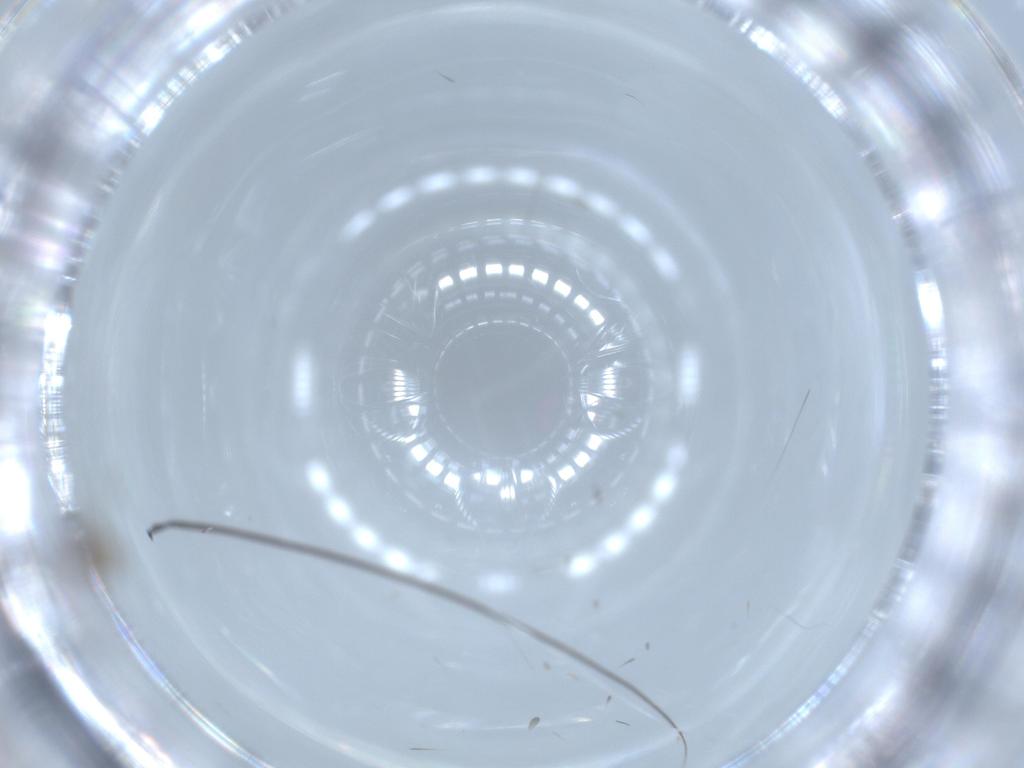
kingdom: Animalia
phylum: Arthropoda
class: Insecta
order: Diptera
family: Cecidomyiidae
